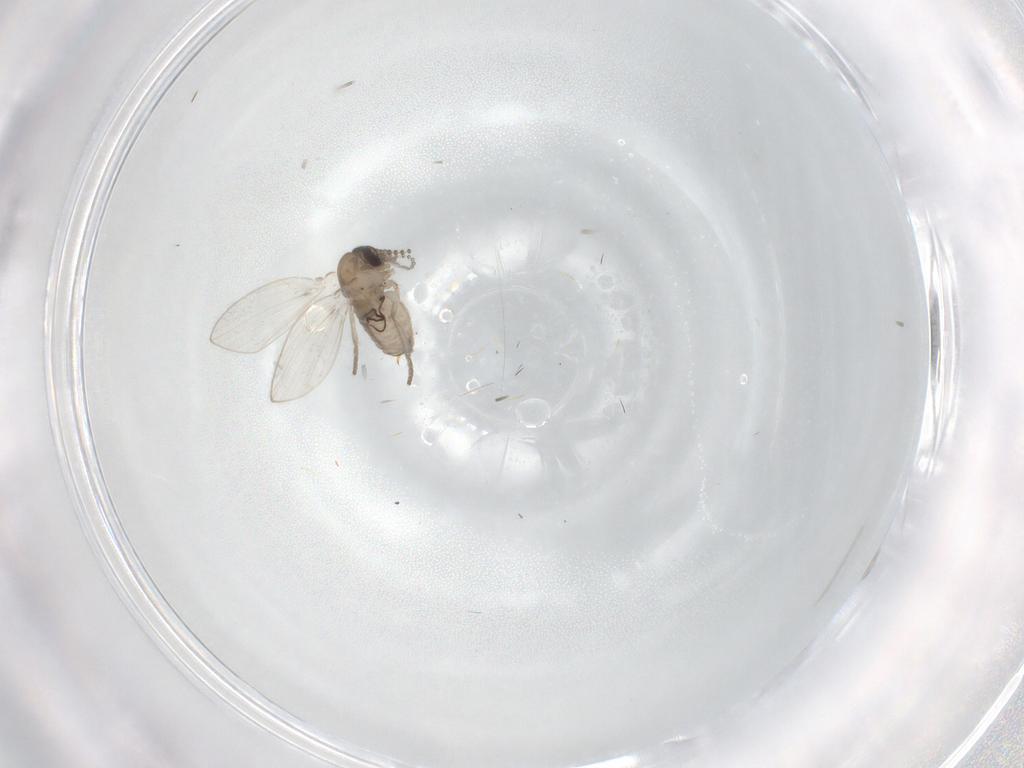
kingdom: Animalia
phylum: Arthropoda
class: Insecta
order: Diptera
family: Psychodidae
